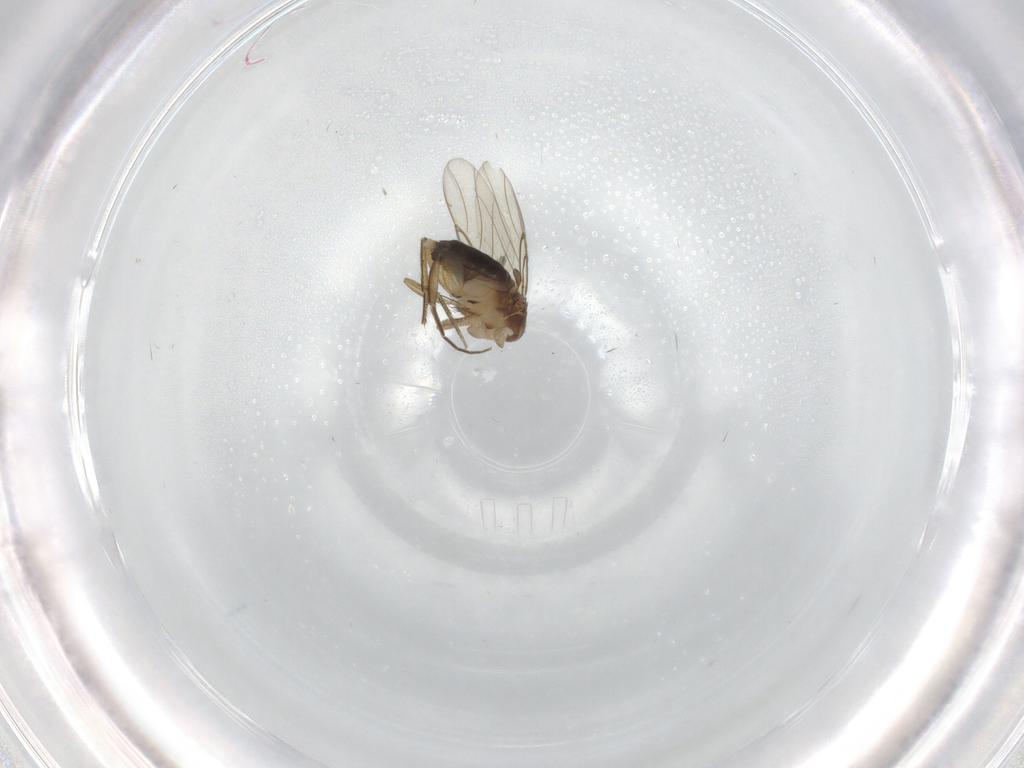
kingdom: Animalia
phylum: Arthropoda
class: Insecta
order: Diptera
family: Phoridae
